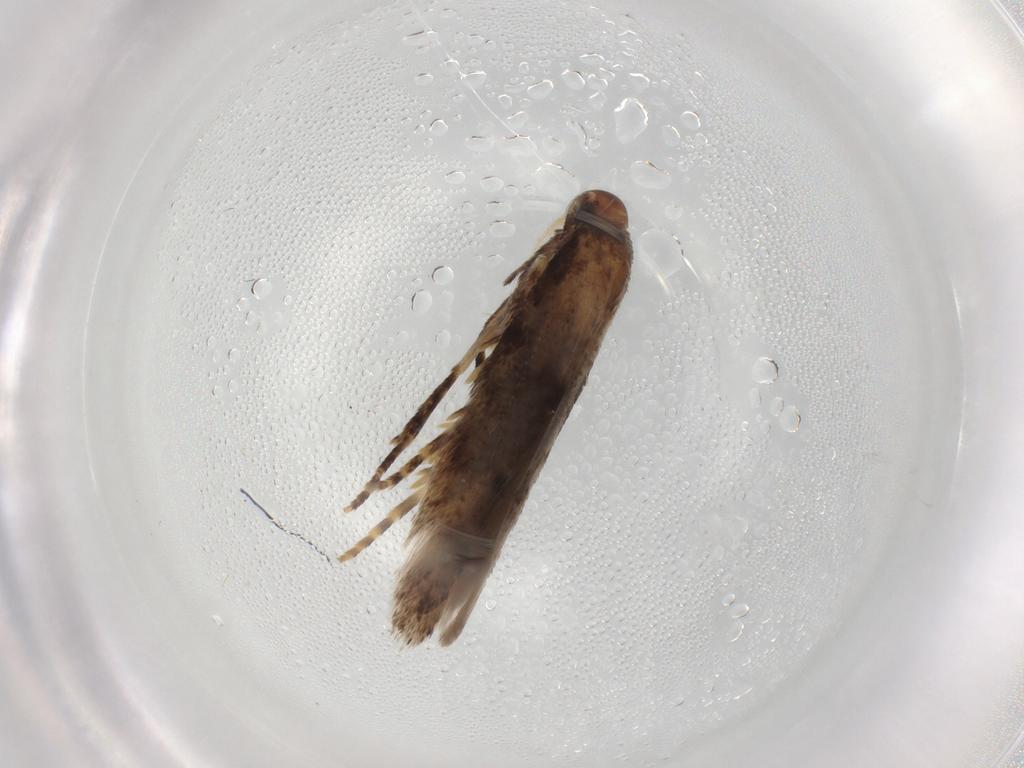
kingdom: Animalia
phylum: Arthropoda
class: Insecta
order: Lepidoptera
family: Gelechiidae
